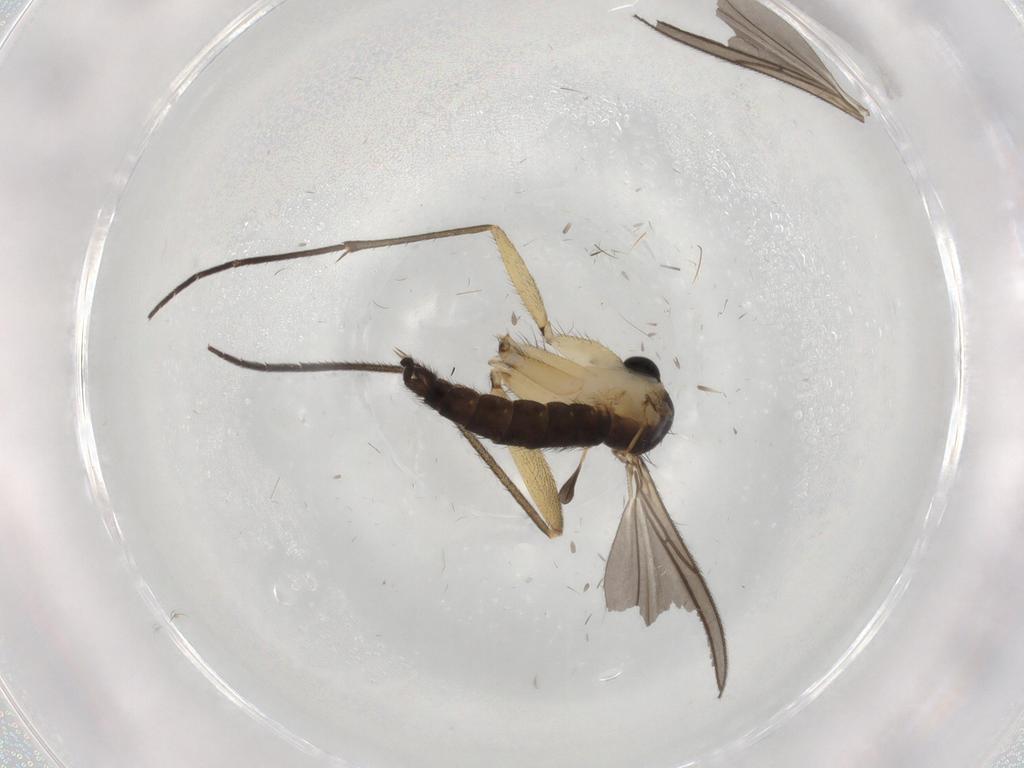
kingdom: Animalia
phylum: Arthropoda
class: Insecta
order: Diptera
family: Sciaridae
